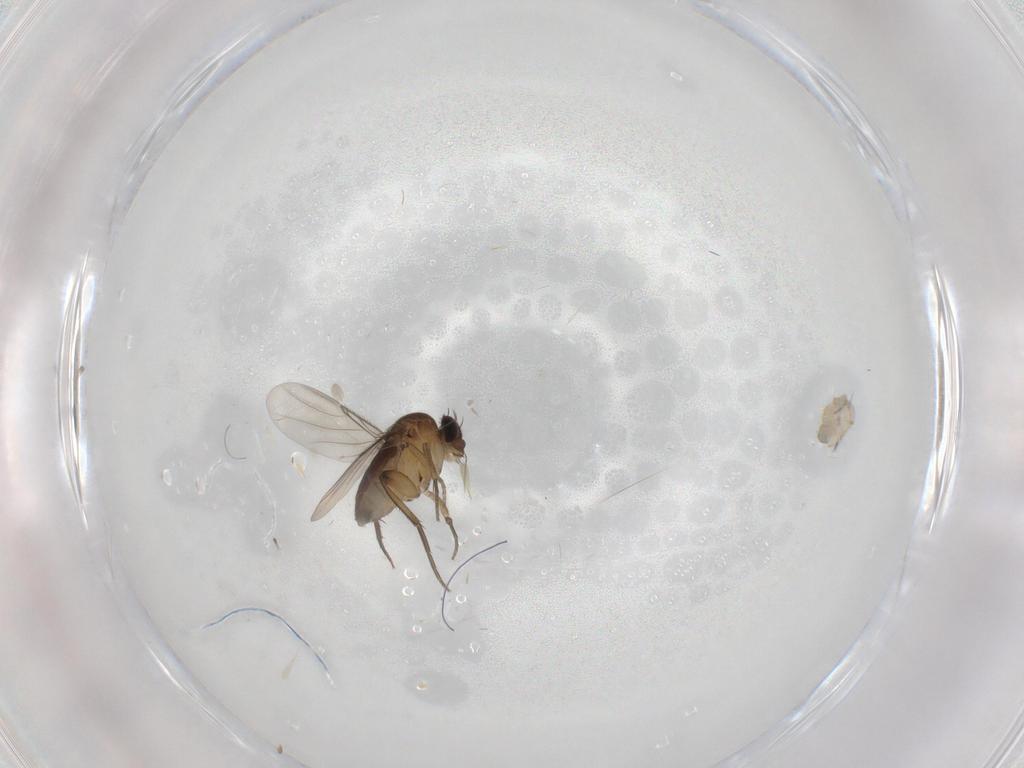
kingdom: Animalia
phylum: Arthropoda
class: Insecta
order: Diptera
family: Phoridae
